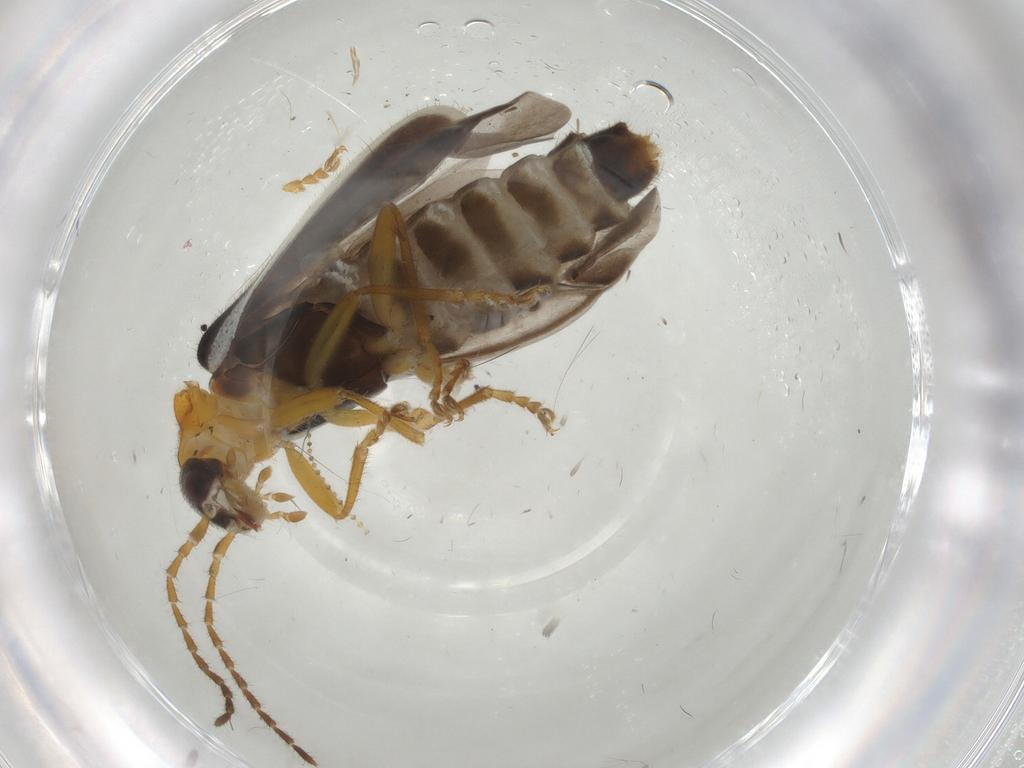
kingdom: Animalia
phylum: Arthropoda
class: Insecta
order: Coleoptera
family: Cantharidae
